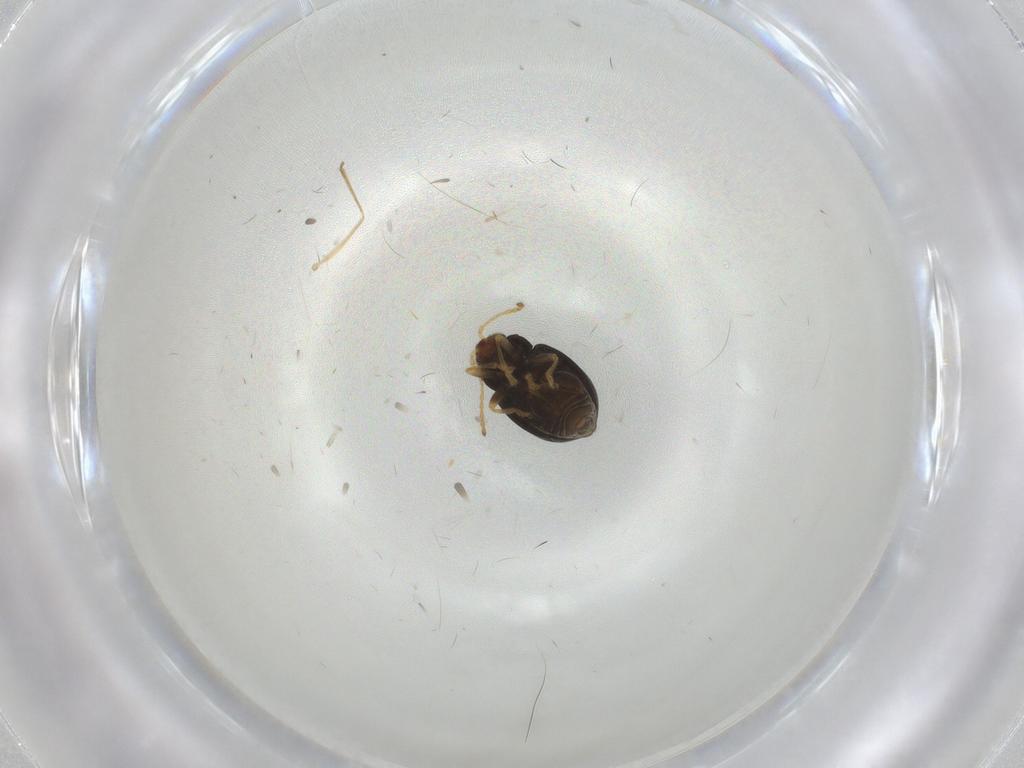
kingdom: Animalia
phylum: Arthropoda
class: Insecta
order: Coleoptera
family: Chrysomelidae
